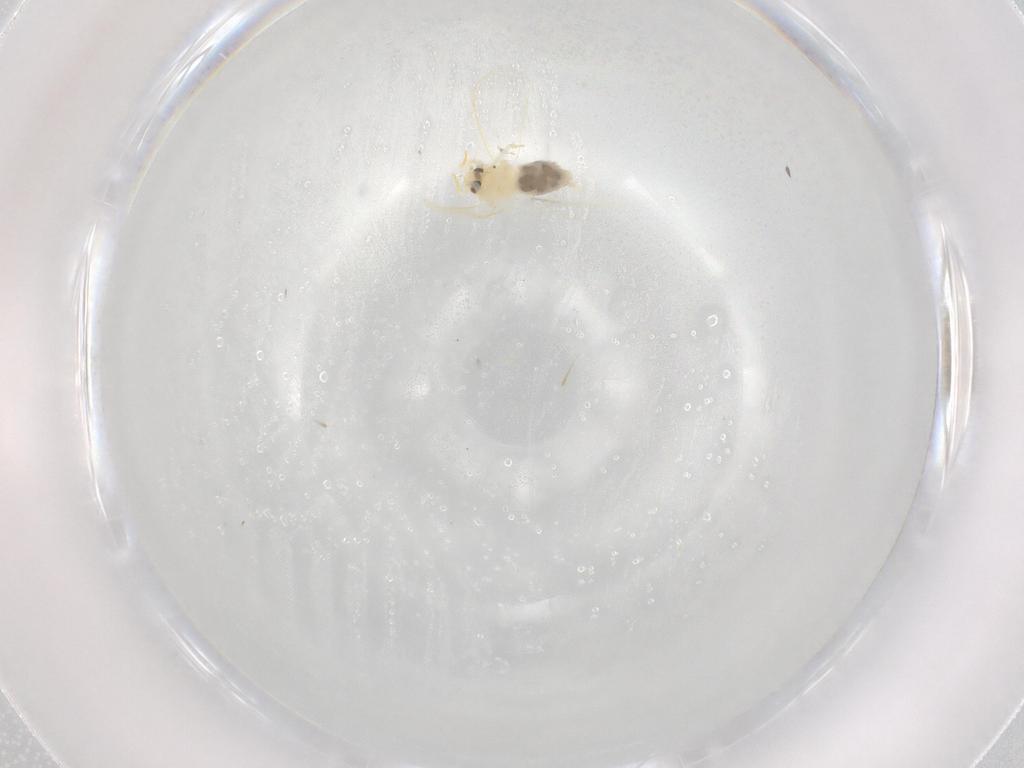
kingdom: Animalia
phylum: Arthropoda
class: Insecta
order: Hemiptera
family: Aleyrodidae
